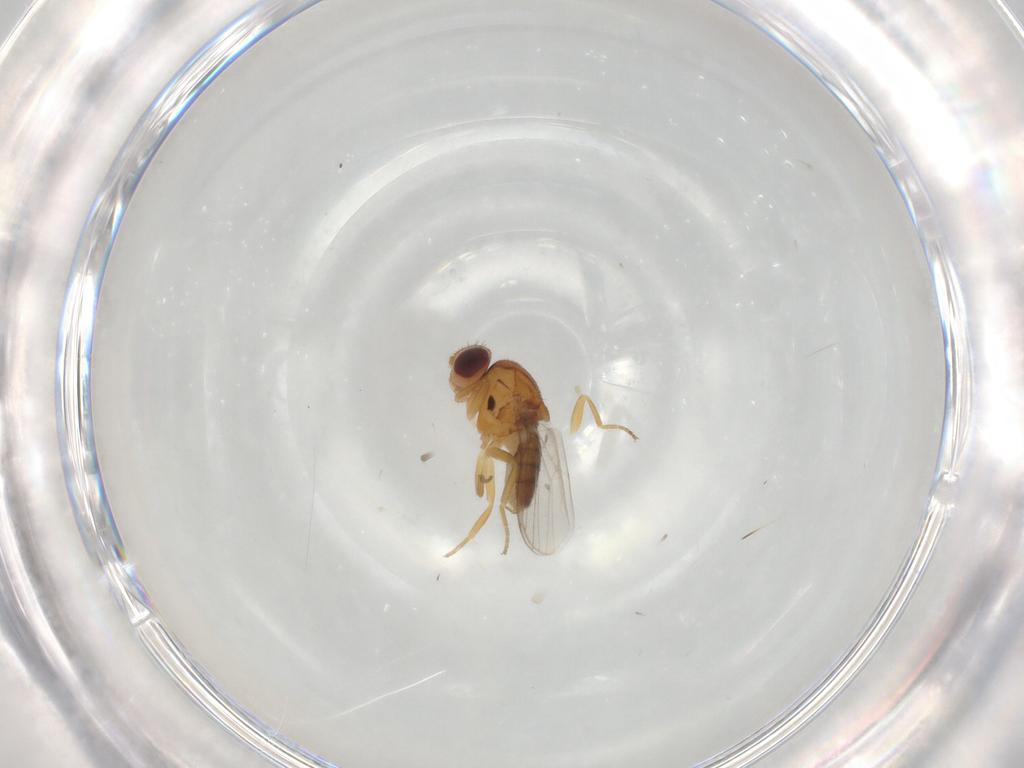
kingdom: Animalia
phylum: Arthropoda
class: Insecta
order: Diptera
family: Chloropidae
